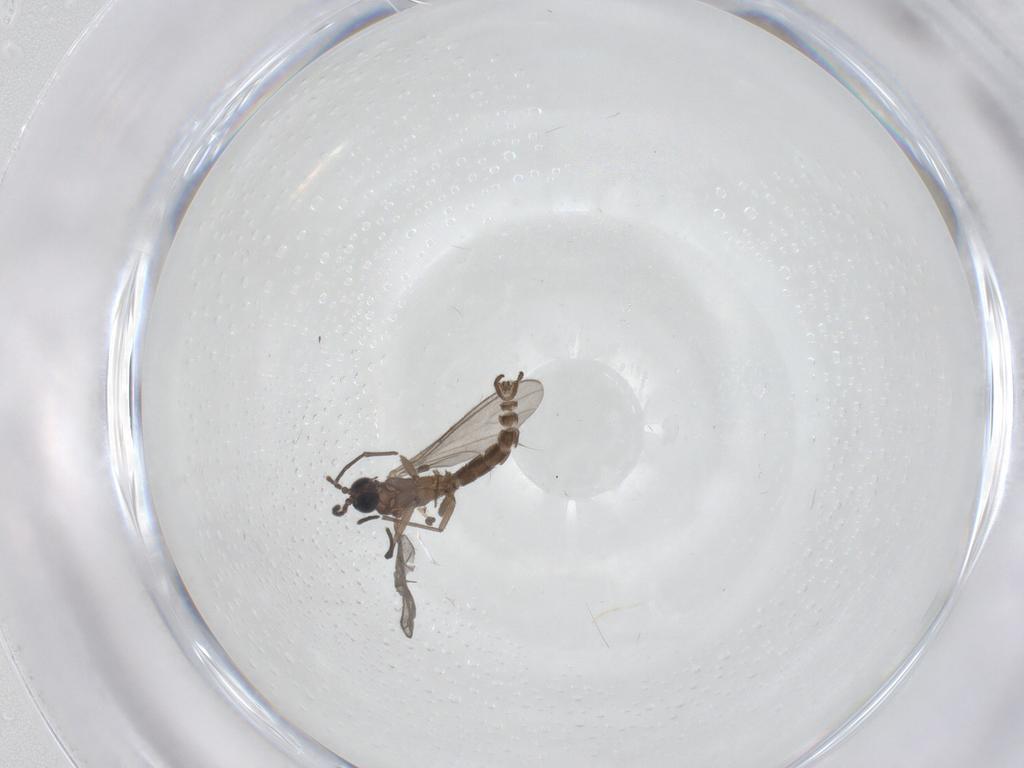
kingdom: Animalia
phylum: Arthropoda
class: Insecta
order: Diptera
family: Chironomidae
